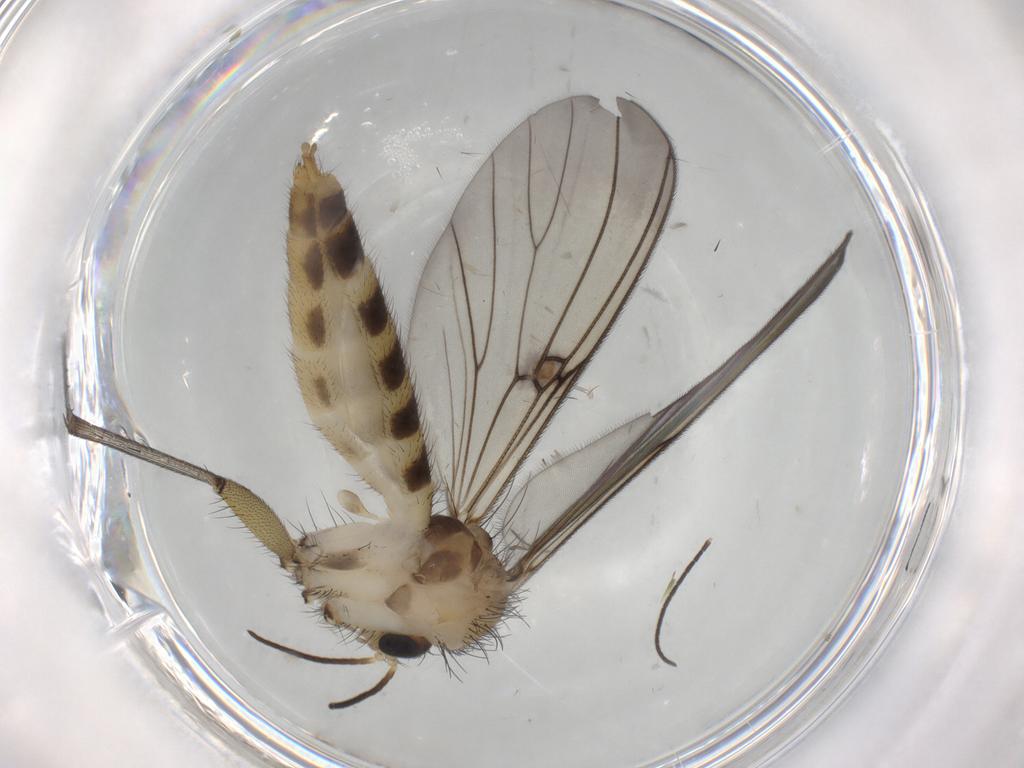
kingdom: Animalia
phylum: Arthropoda
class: Insecta
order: Diptera
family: Mycetophilidae
